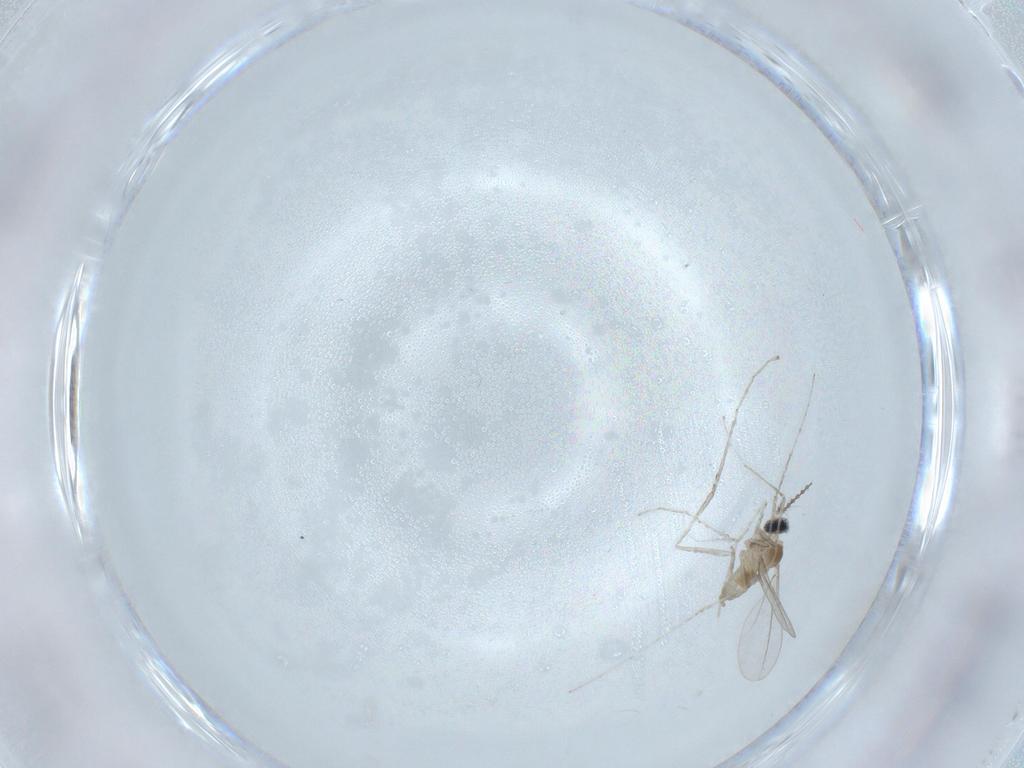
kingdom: Animalia
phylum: Arthropoda
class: Insecta
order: Diptera
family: Cecidomyiidae
